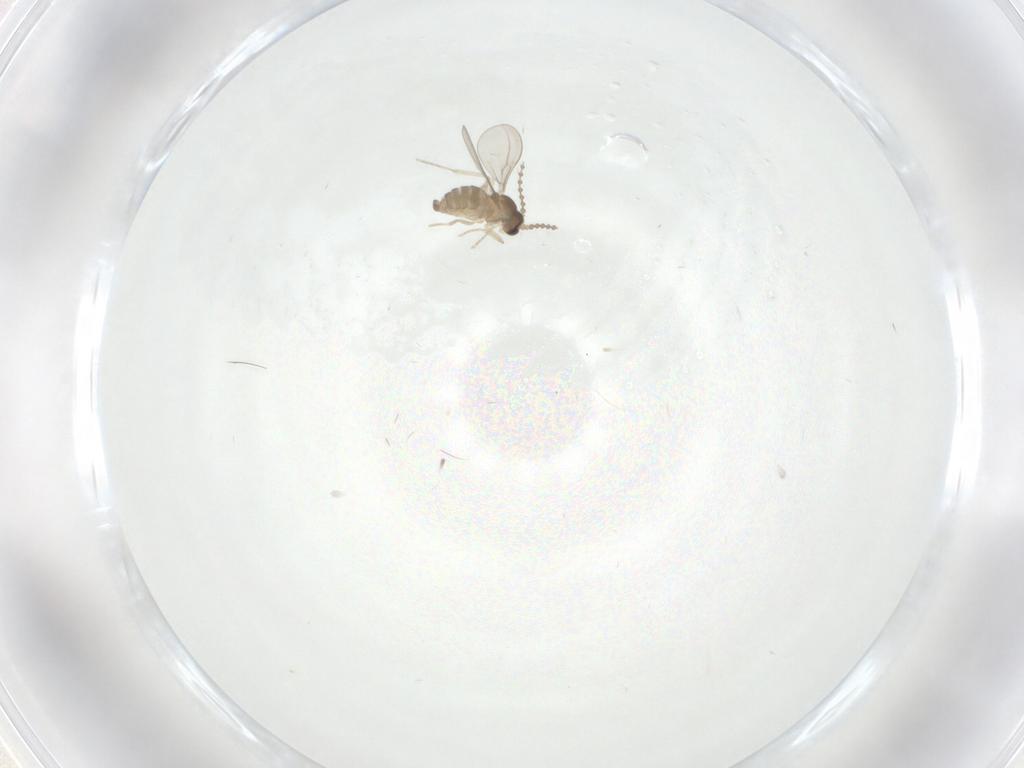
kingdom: Animalia
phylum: Arthropoda
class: Insecta
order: Diptera
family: Cecidomyiidae
